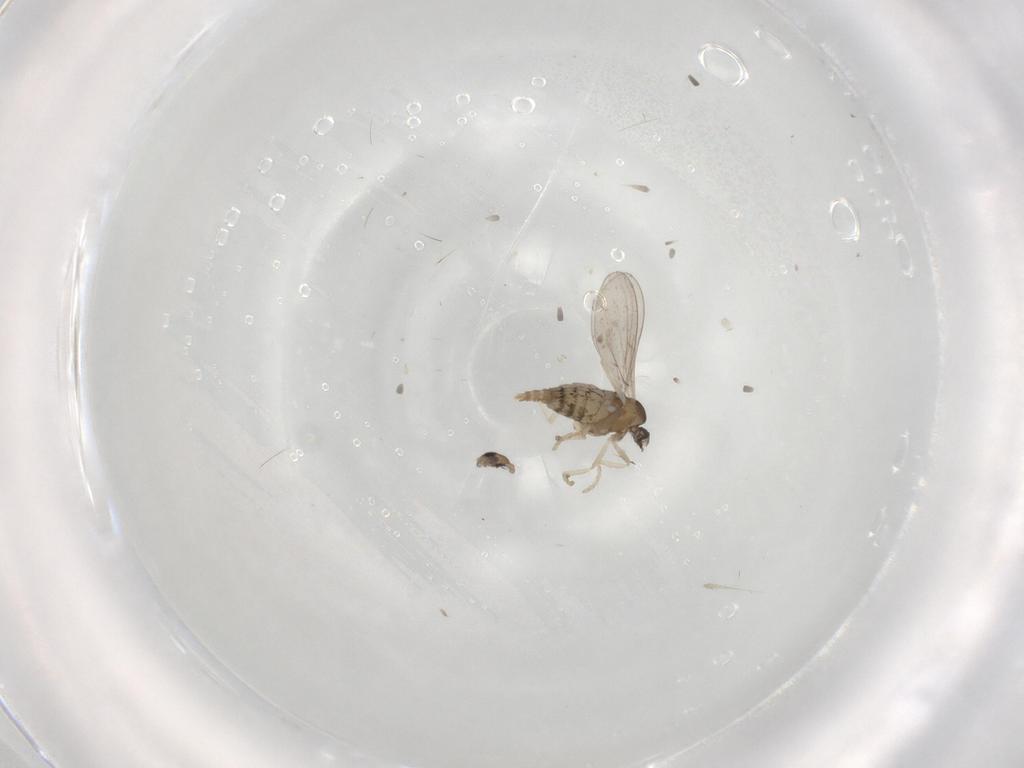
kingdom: Animalia
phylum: Arthropoda
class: Insecta
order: Diptera
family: Cecidomyiidae
